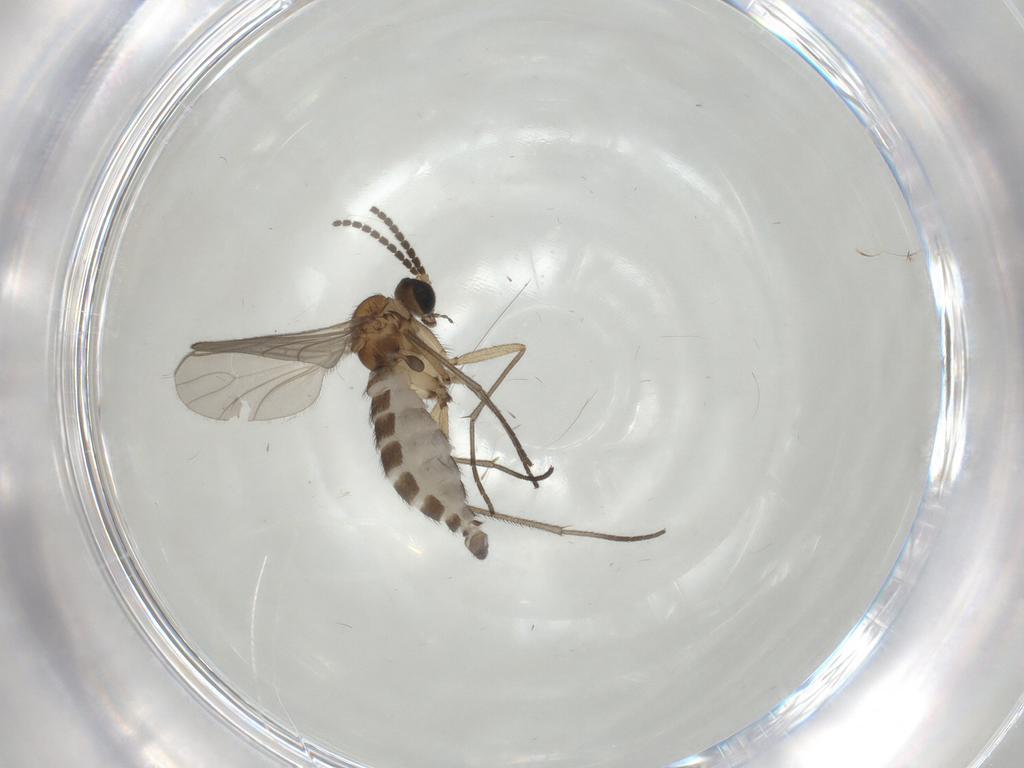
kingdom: Animalia
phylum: Arthropoda
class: Insecta
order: Diptera
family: Sciaridae
